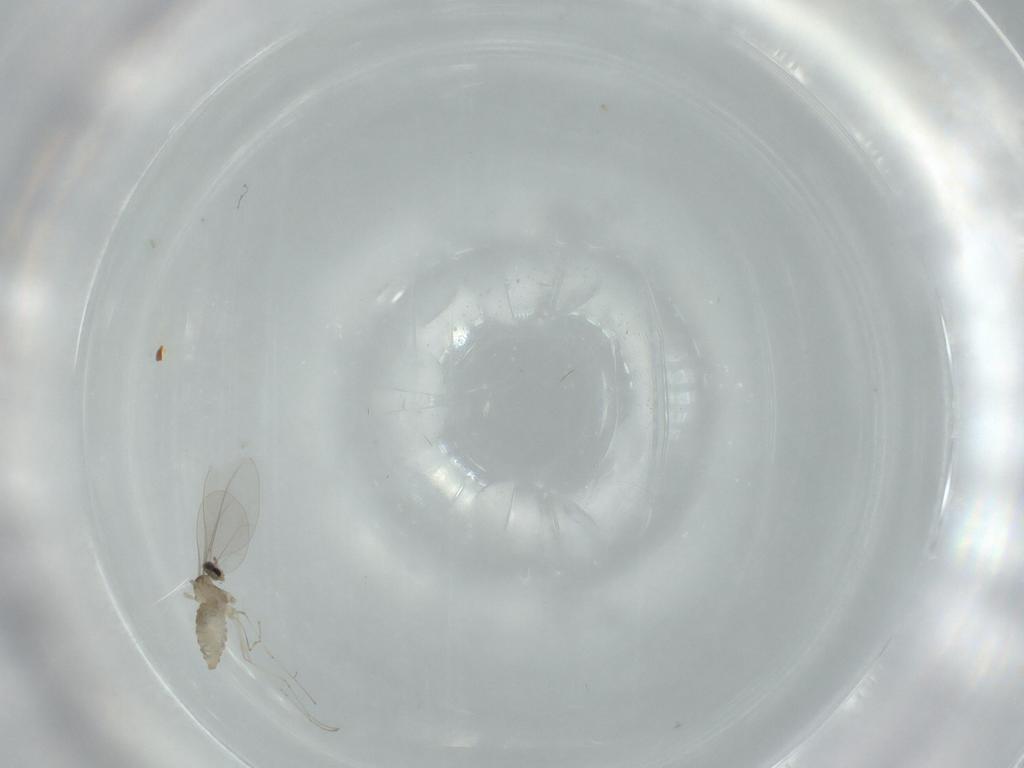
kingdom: Animalia
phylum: Arthropoda
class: Insecta
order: Diptera
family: Cecidomyiidae
